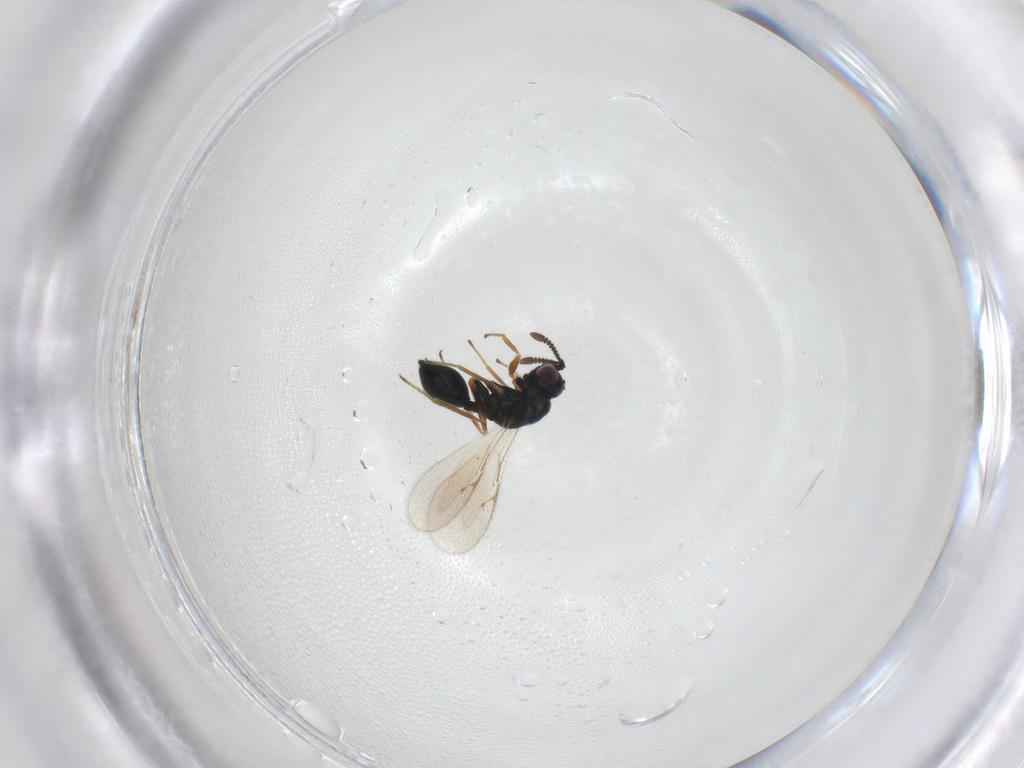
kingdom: Animalia
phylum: Arthropoda
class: Insecta
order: Hymenoptera
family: Chalcidoidea_incertae_sedis
